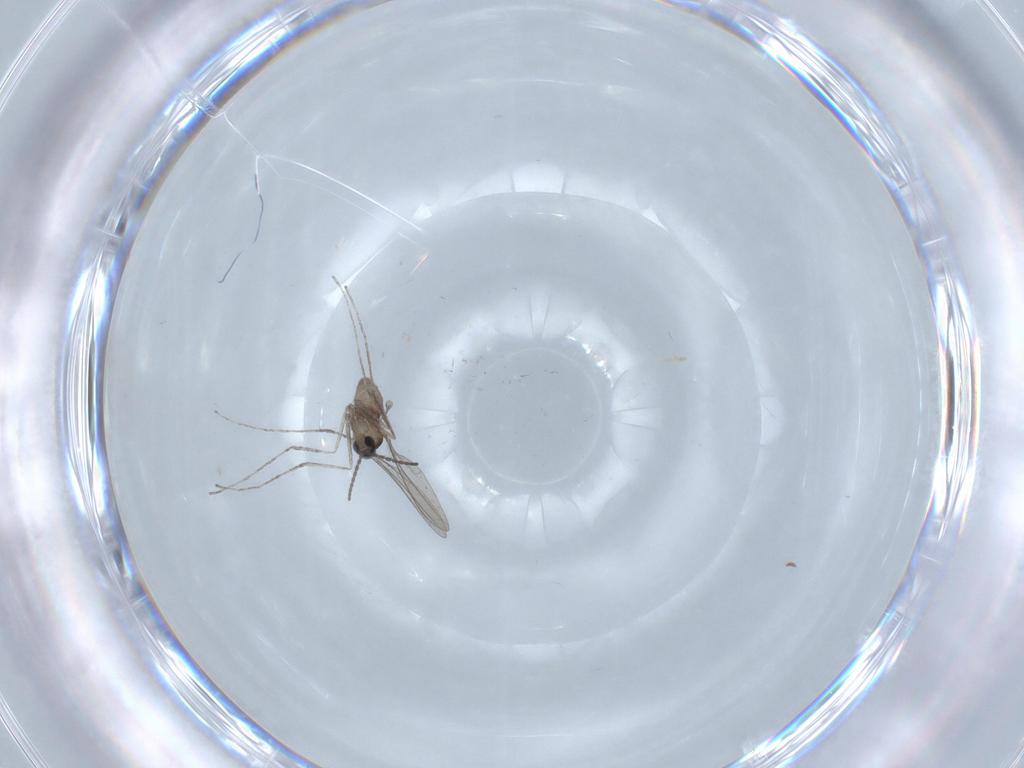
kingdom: Animalia
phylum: Arthropoda
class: Insecta
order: Diptera
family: Cecidomyiidae
